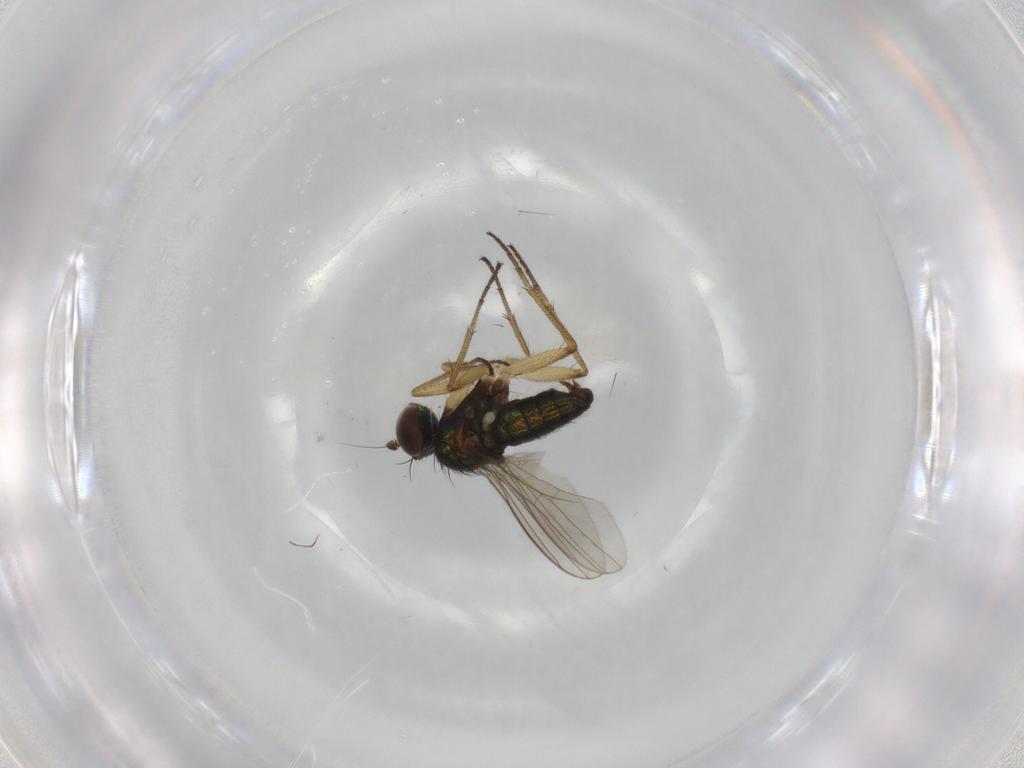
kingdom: Animalia
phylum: Arthropoda
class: Insecta
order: Diptera
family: Dolichopodidae
